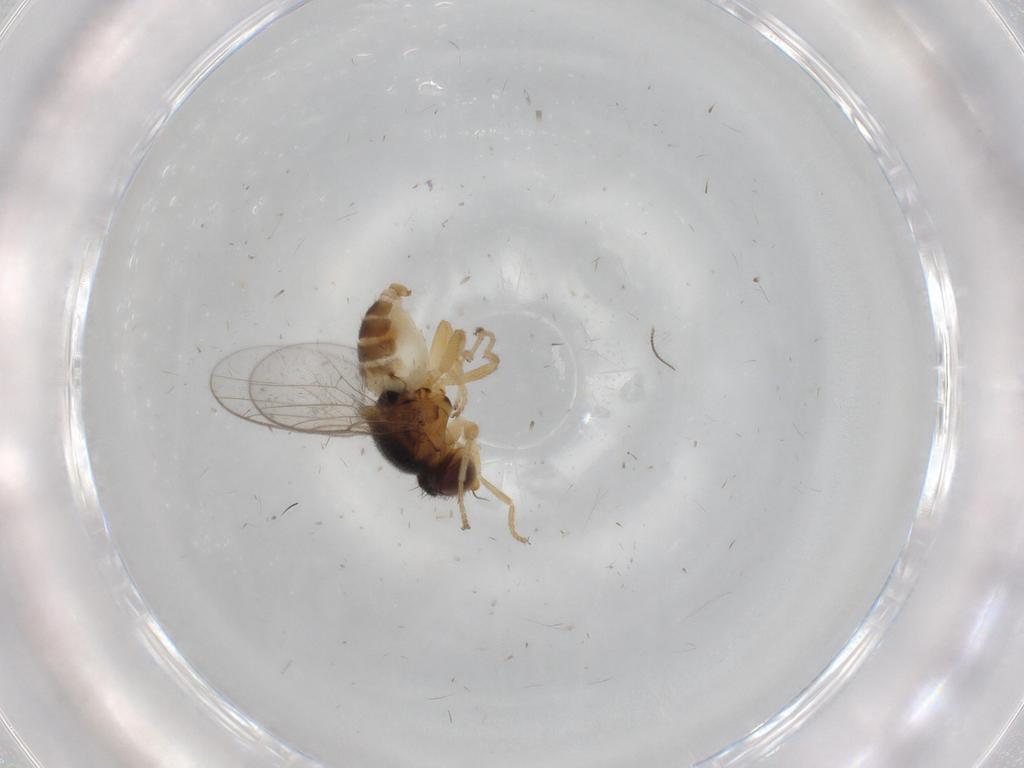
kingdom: Animalia
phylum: Arthropoda
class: Insecta
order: Diptera
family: Chloropidae
